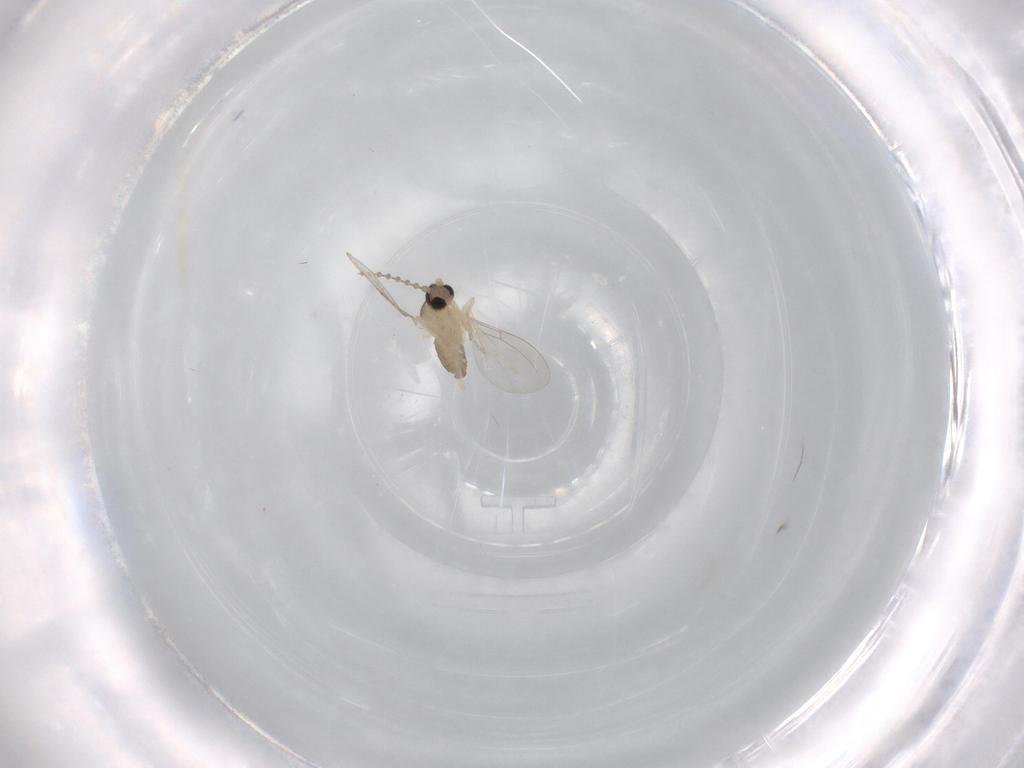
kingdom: Animalia
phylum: Arthropoda
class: Insecta
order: Diptera
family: Cecidomyiidae
